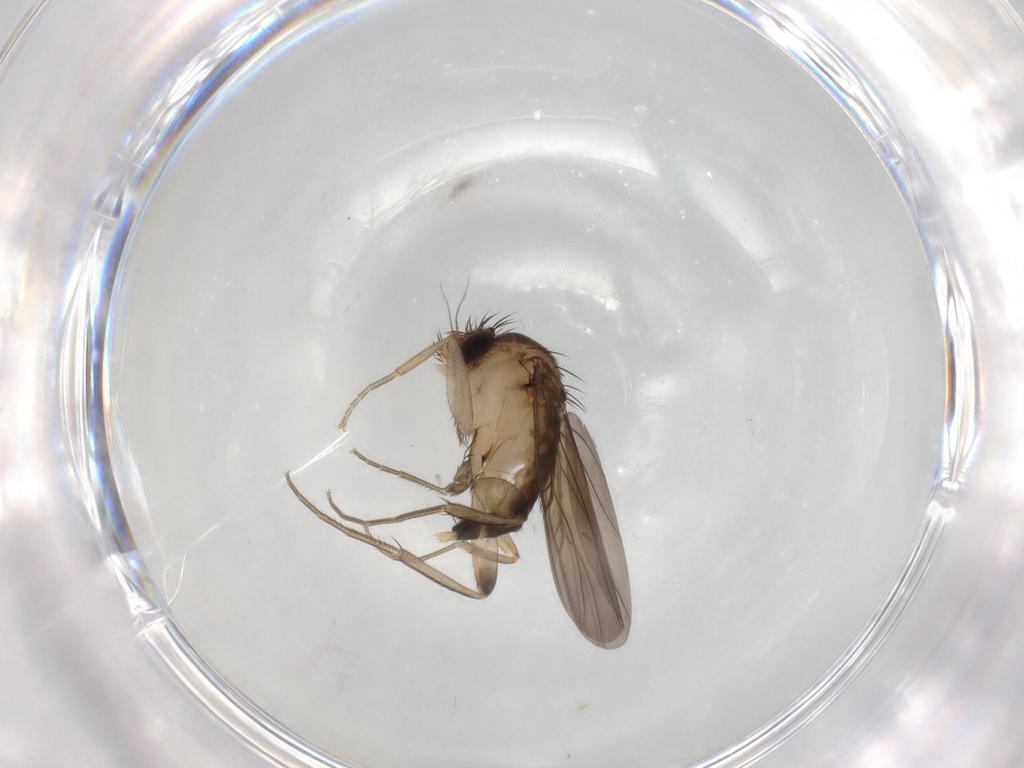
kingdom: Animalia
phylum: Arthropoda
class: Insecta
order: Diptera
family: Phoridae
